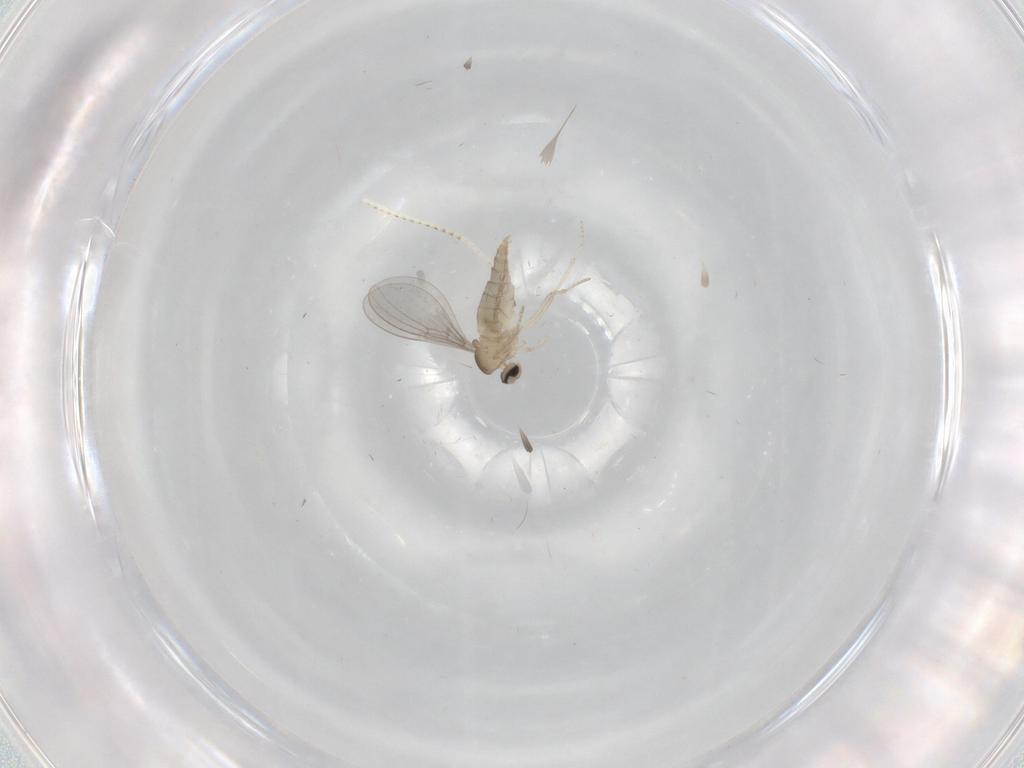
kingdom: Animalia
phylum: Arthropoda
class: Insecta
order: Diptera
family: Cecidomyiidae
